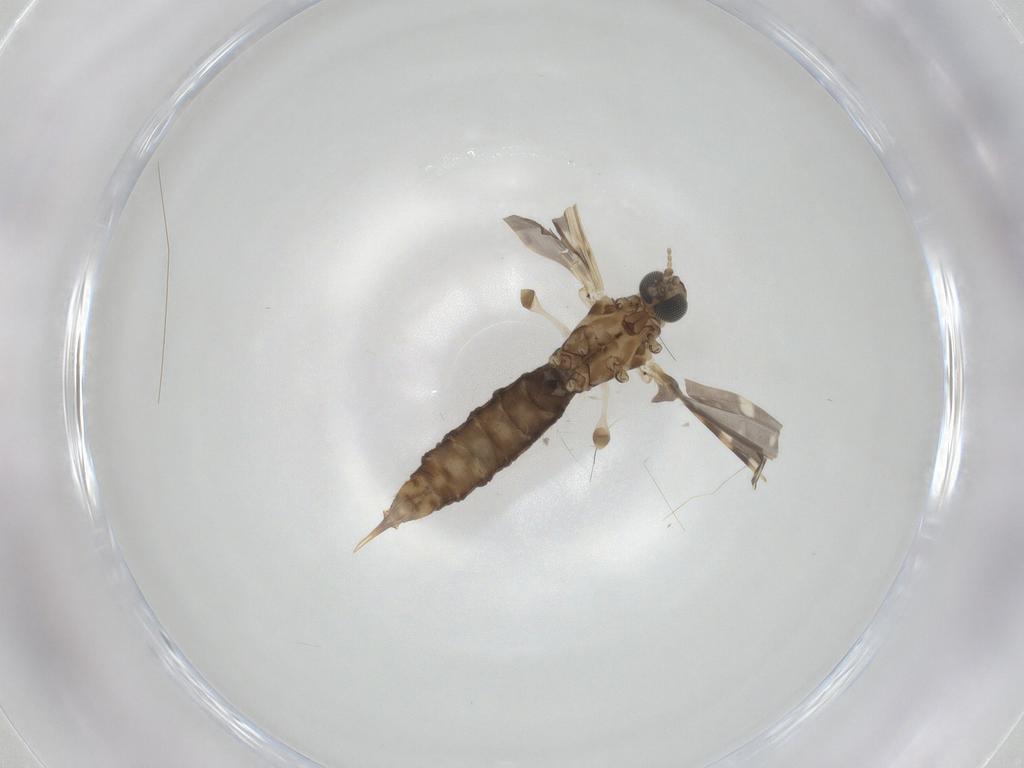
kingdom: Animalia
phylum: Arthropoda
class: Insecta
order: Diptera
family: Limoniidae
